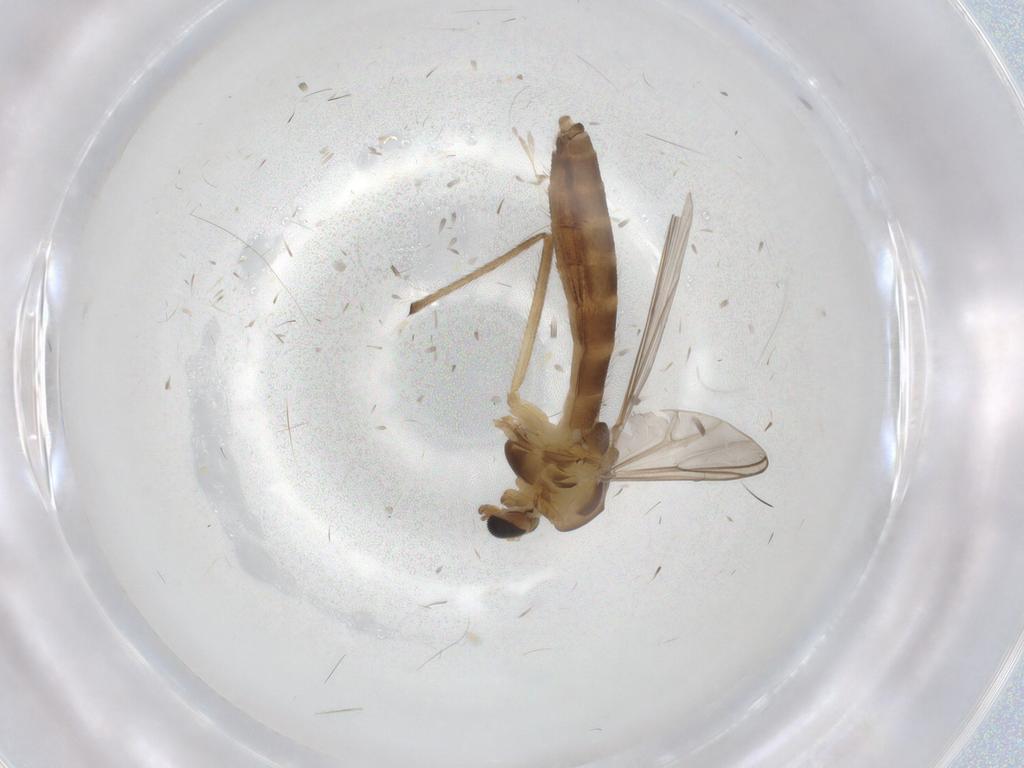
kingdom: Animalia
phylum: Arthropoda
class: Insecta
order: Diptera
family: Chironomidae
